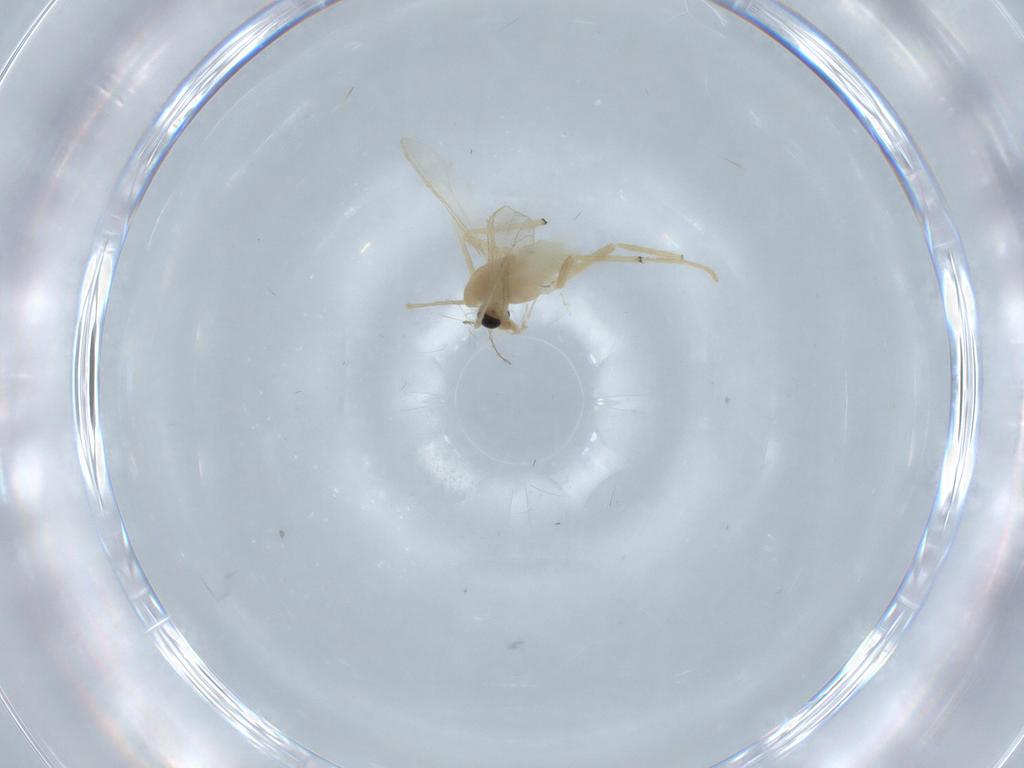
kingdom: Animalia
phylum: Arthropoda
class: Insecta
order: Diptera
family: Chironomidae
